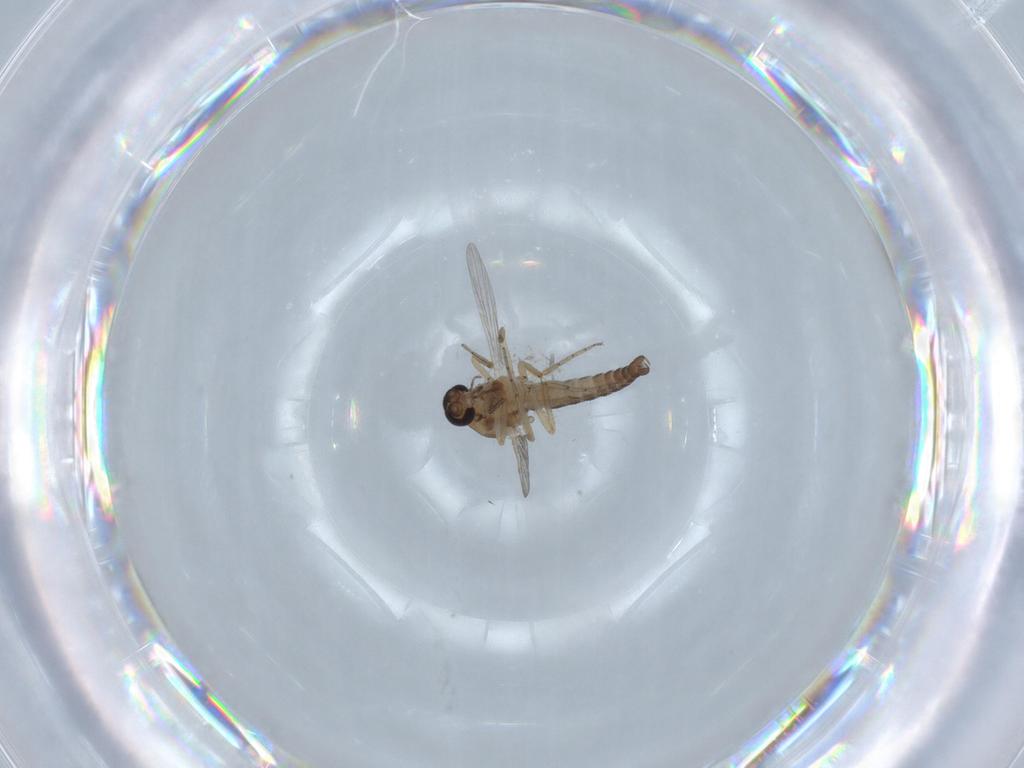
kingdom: Animalia
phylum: Arthropoda
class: Insecta
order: Diptera
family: Ceratopogonidae
